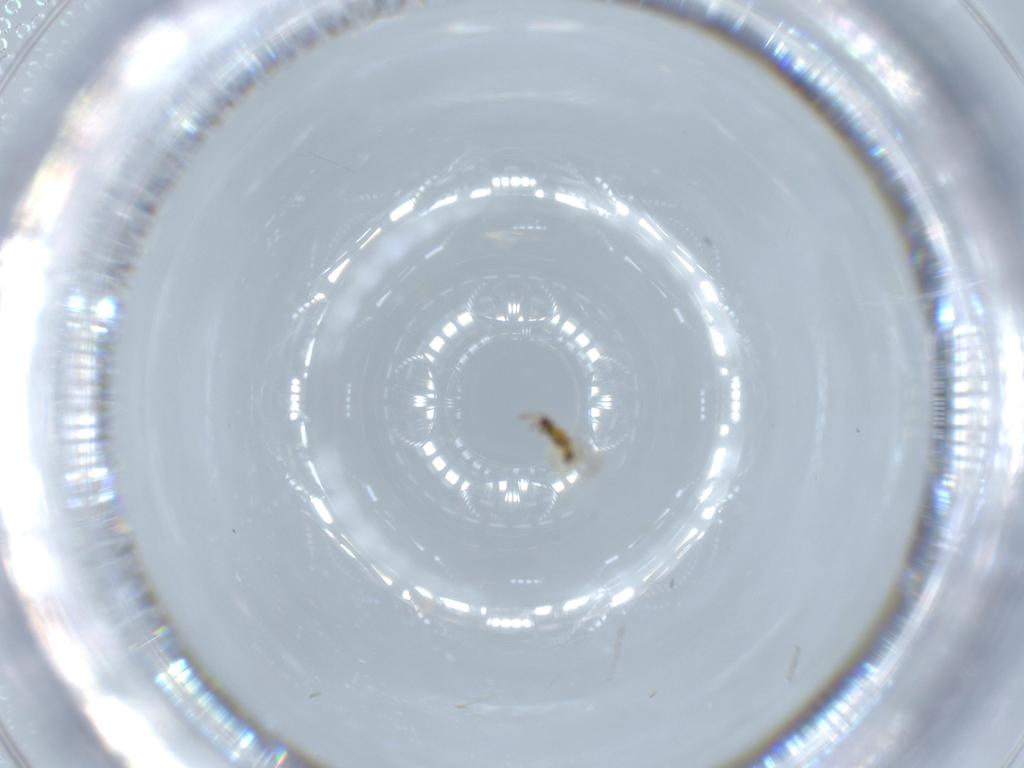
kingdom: Animalia
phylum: Arthropoda
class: Insecta
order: Hymenoptera
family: Aphelinidae
